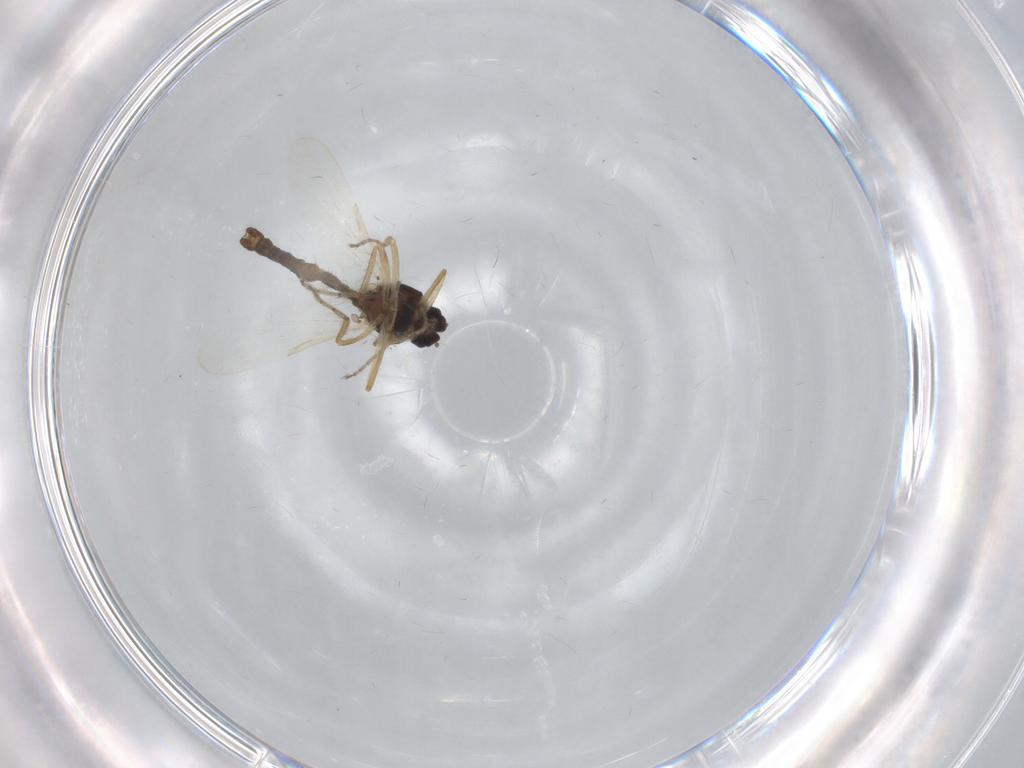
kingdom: Animalia
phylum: Arthropoda
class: Insecta
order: Diptera
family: Ceratopogonidae
